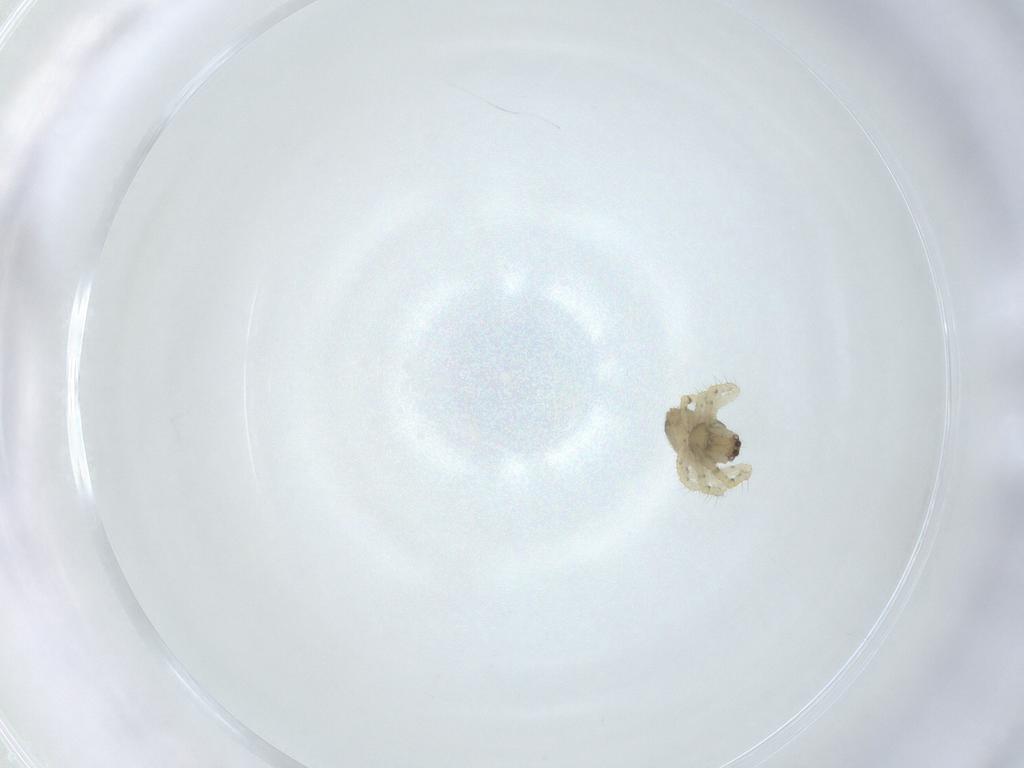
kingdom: Animalia
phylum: Arthropoda
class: Arachnida
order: Araneae
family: Theridiidae
